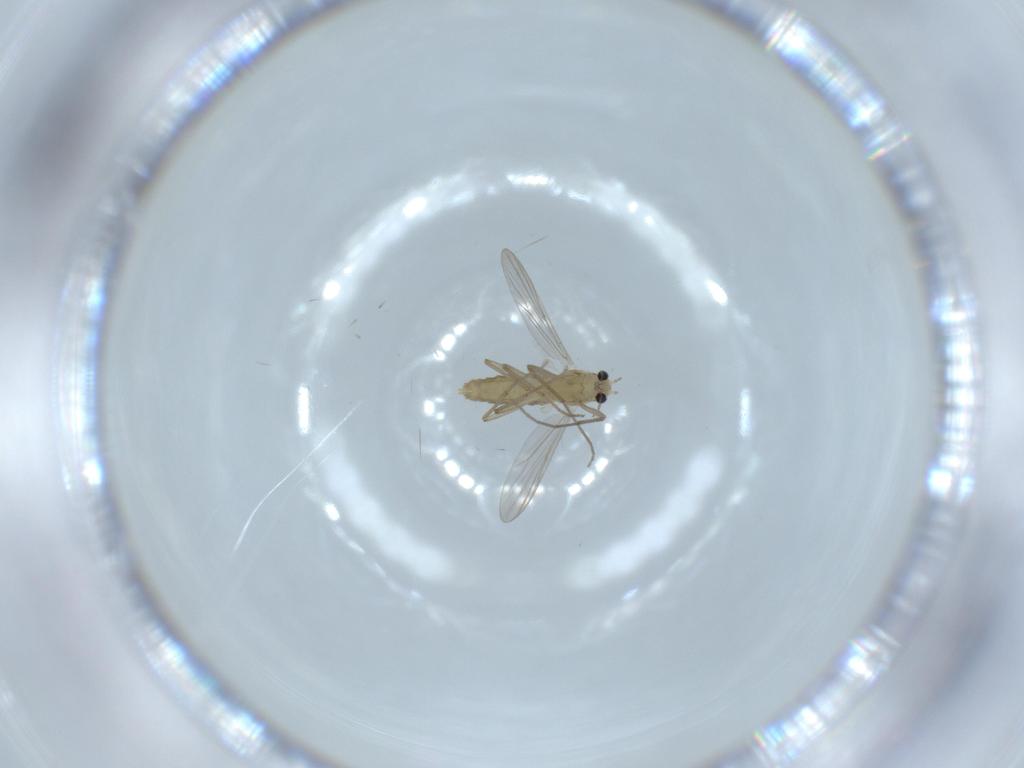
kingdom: Animalia
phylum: Arthropoda
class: Insecta
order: Diptera
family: Chironomidae
